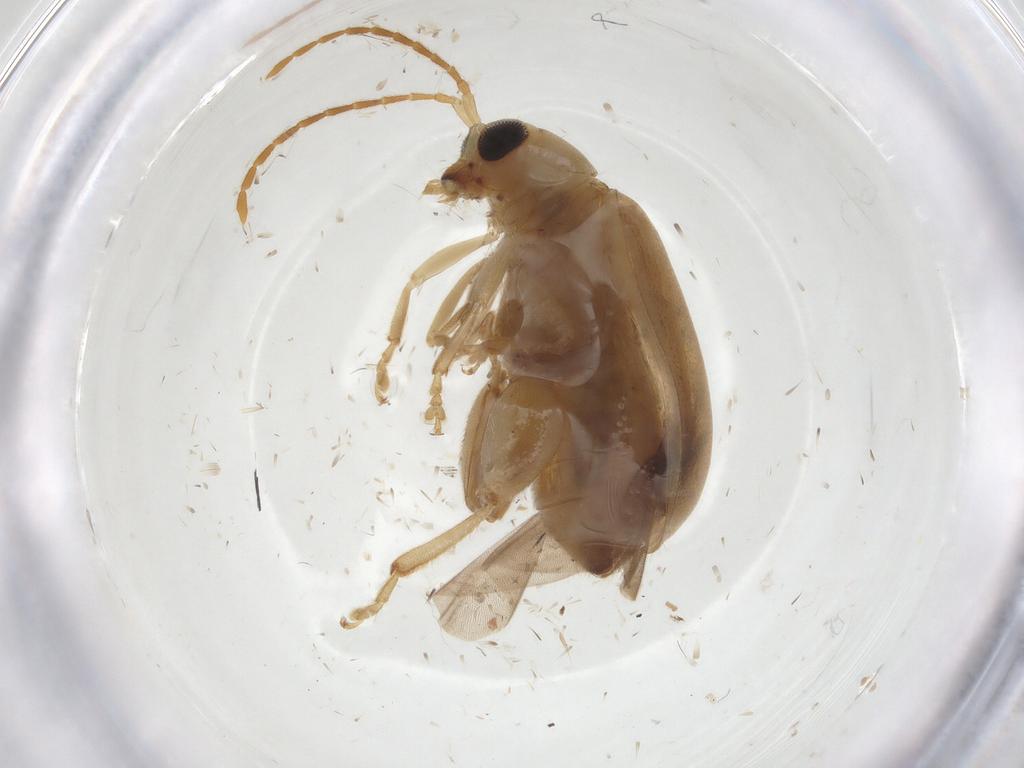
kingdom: Animalia
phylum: Arthropoda
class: Insecta
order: Coleoptera
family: Chrysomelidae
